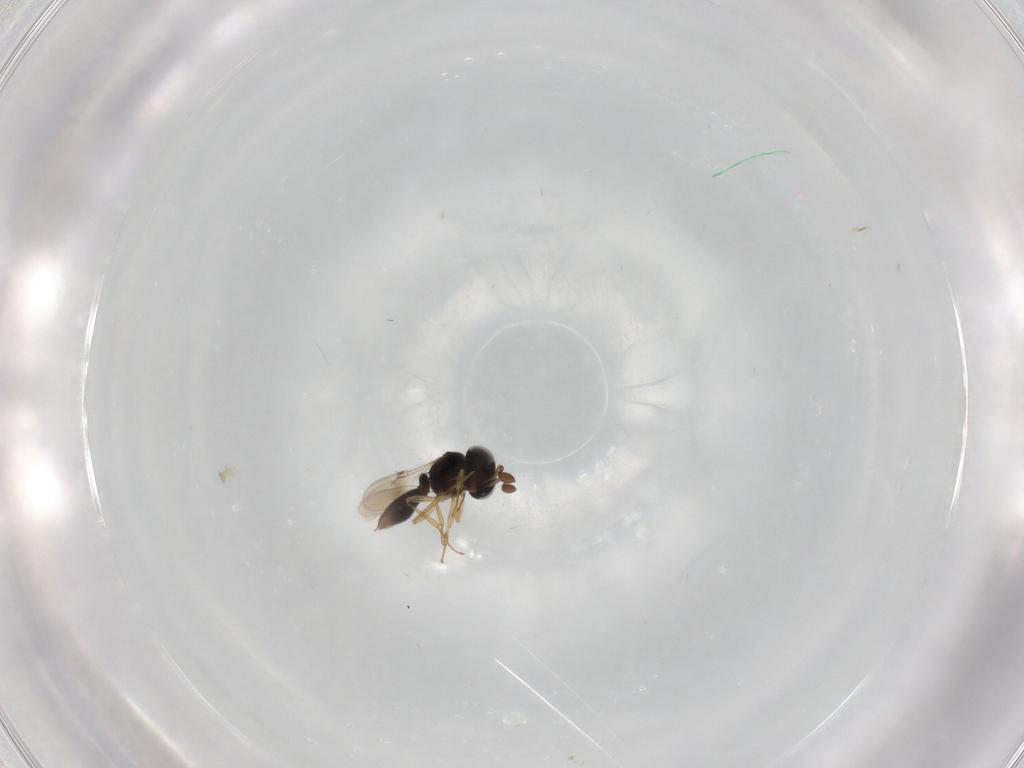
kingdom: Animalia
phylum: Arthropoda
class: Insecta
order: Hymenoptera
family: Scelionidae
